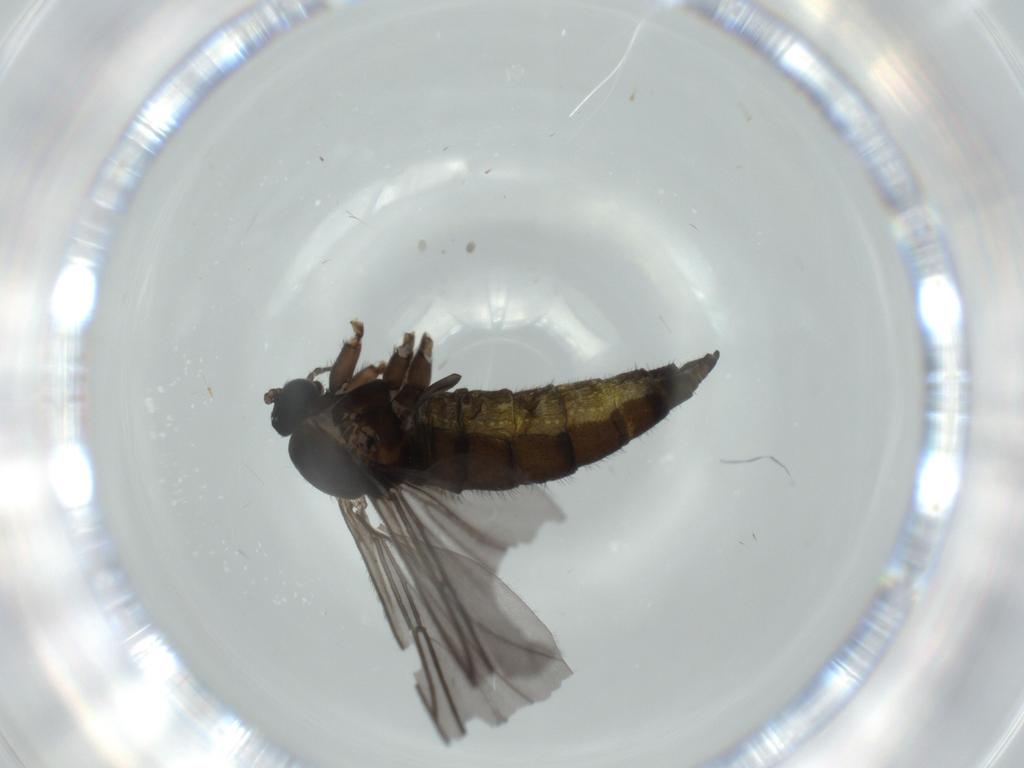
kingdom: Animalia
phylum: Arthropoda
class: Insecta
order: Diptera
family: Sciaridae
